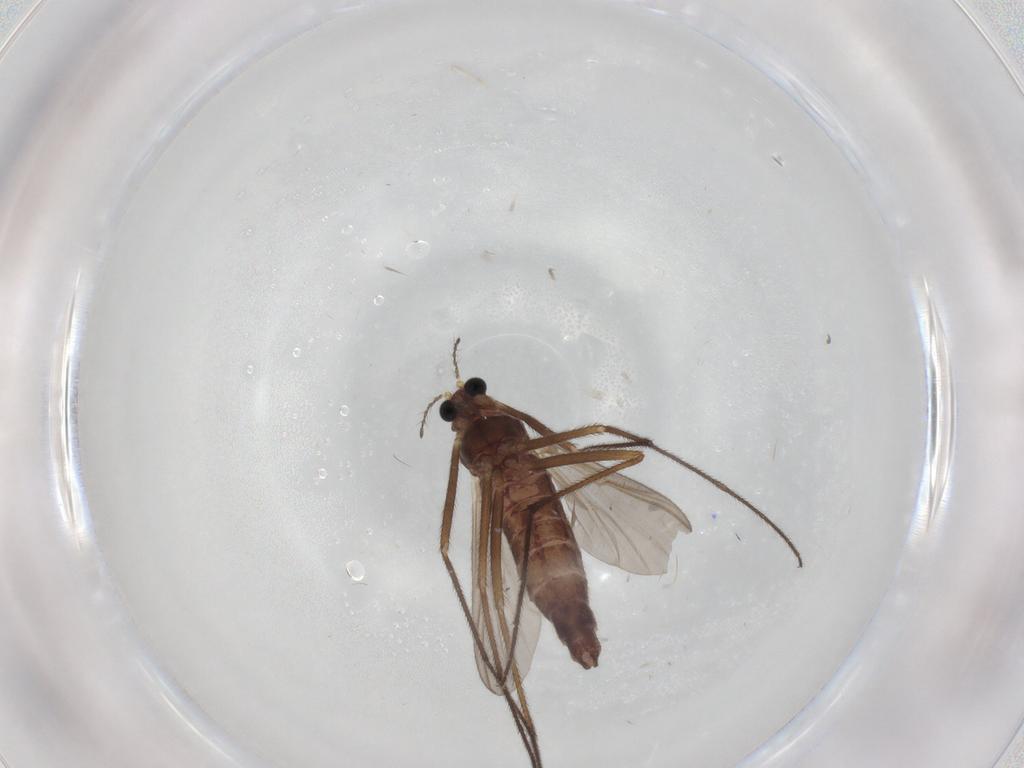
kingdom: Animalia
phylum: Arthropoda
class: Insecta
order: Diptera
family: Chironomidae
